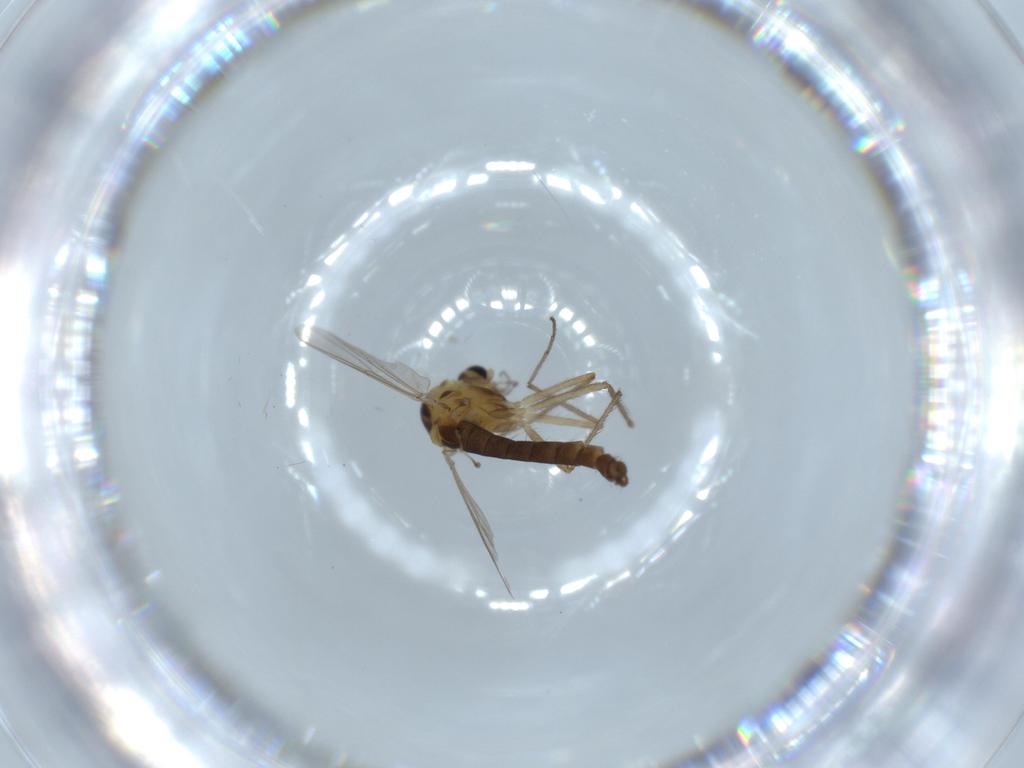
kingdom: Animalia
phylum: Arthropoda
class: Insecta
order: Diptera
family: Chironomidae
